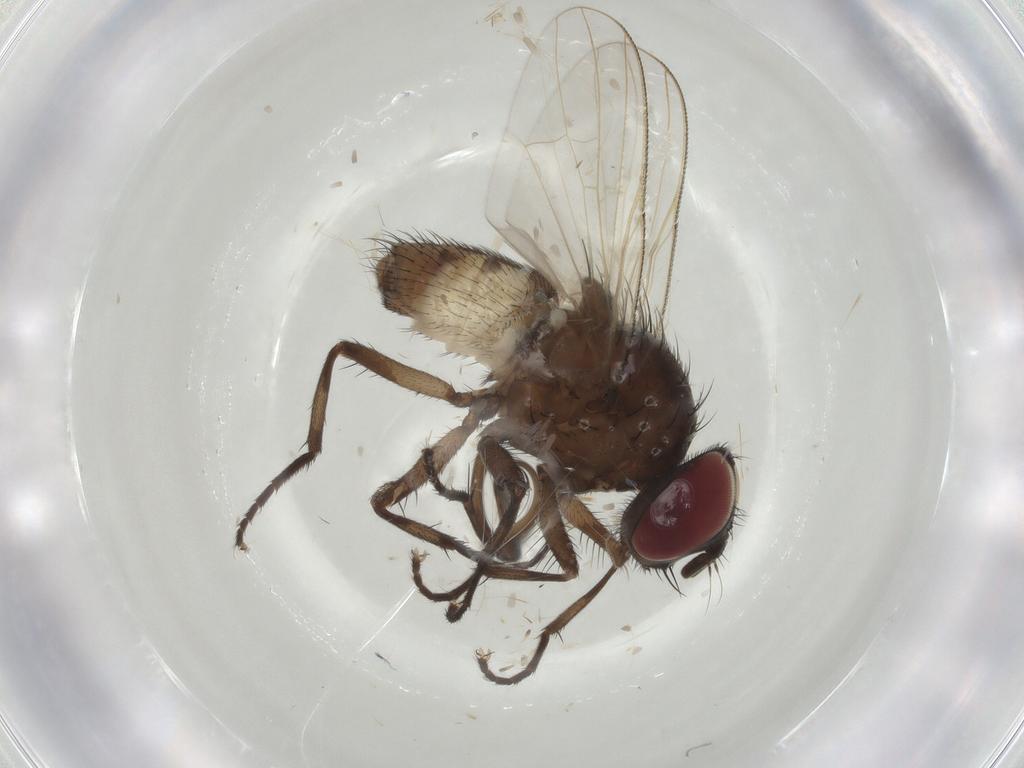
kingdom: Animalia
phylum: Arthropoda
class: Insecta
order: Diptera
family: Muscidae
